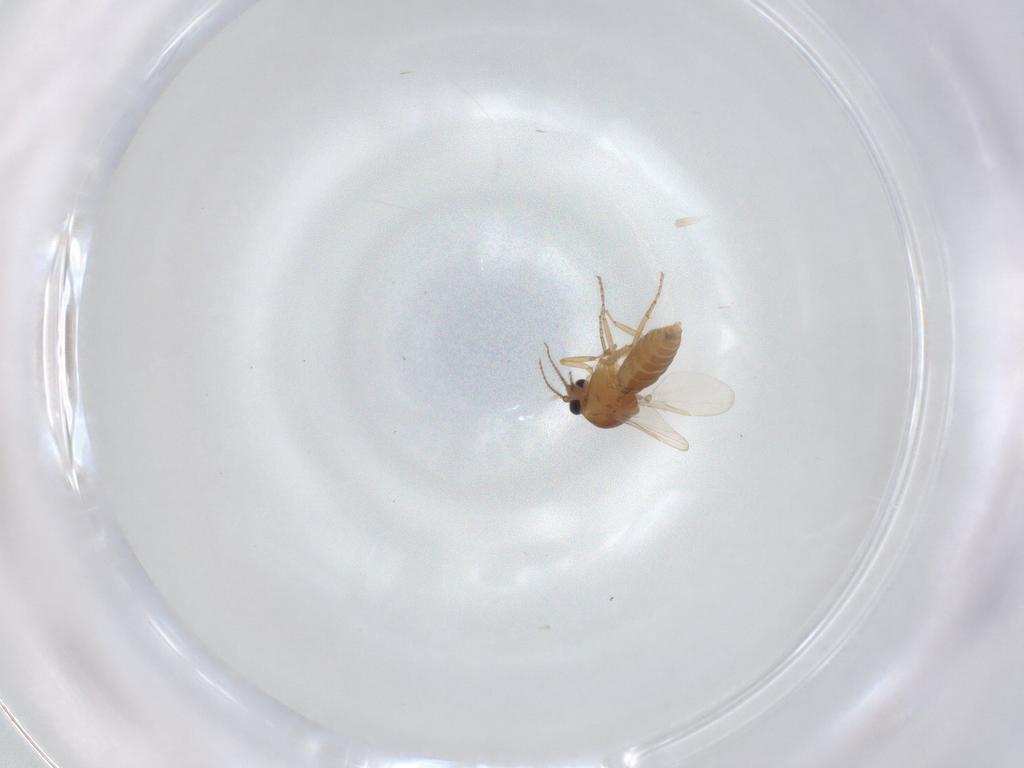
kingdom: Animalia
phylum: Arthropoda
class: Insecta
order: Diptera
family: Ceratopogonidae
